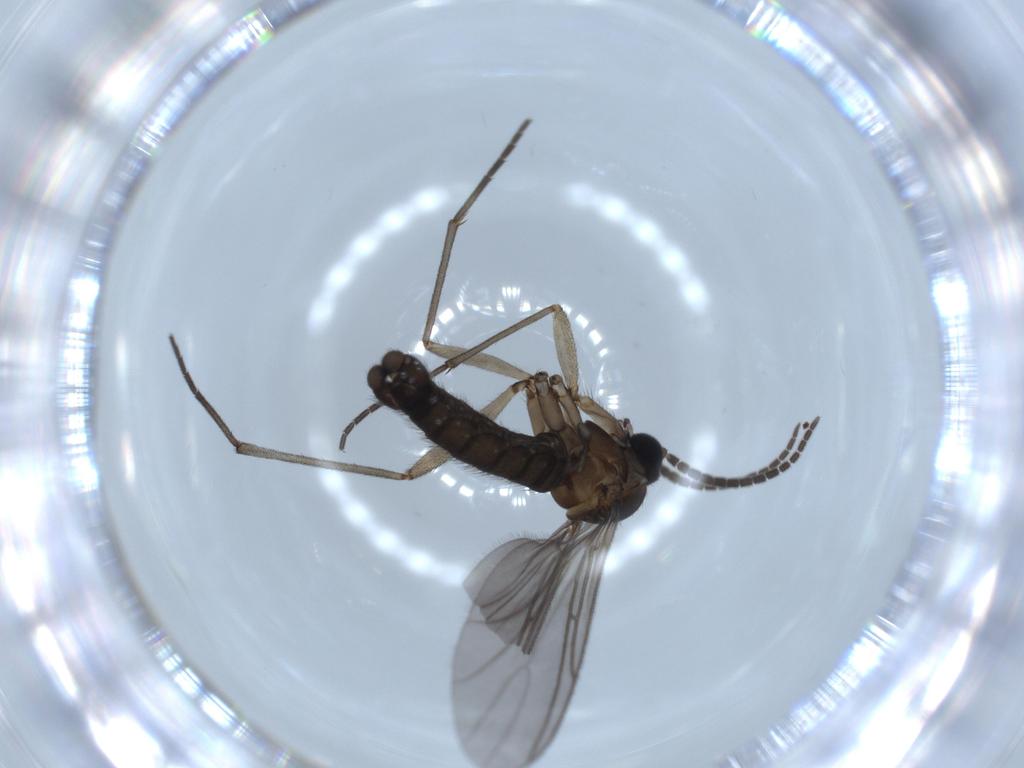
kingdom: Animalia
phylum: Arthropoda
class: Insecta
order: Diptera
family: Sciaridae
